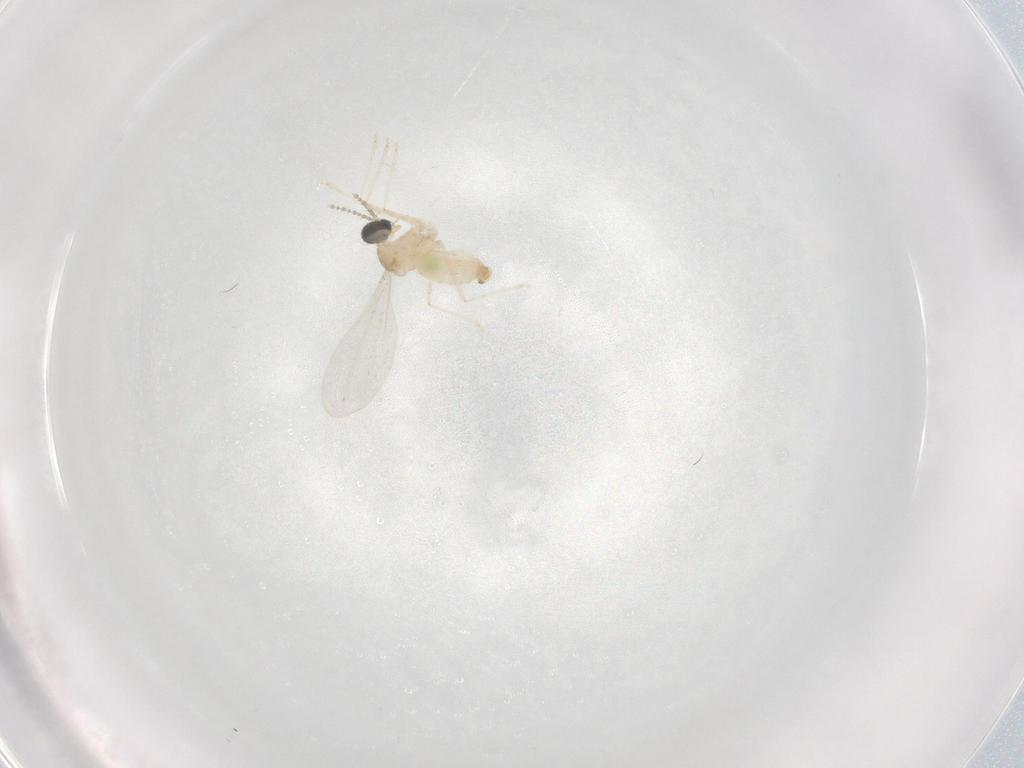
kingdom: Animalia
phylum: Arthropoda
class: Insecta
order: Diptera
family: Cecidomyiidae
